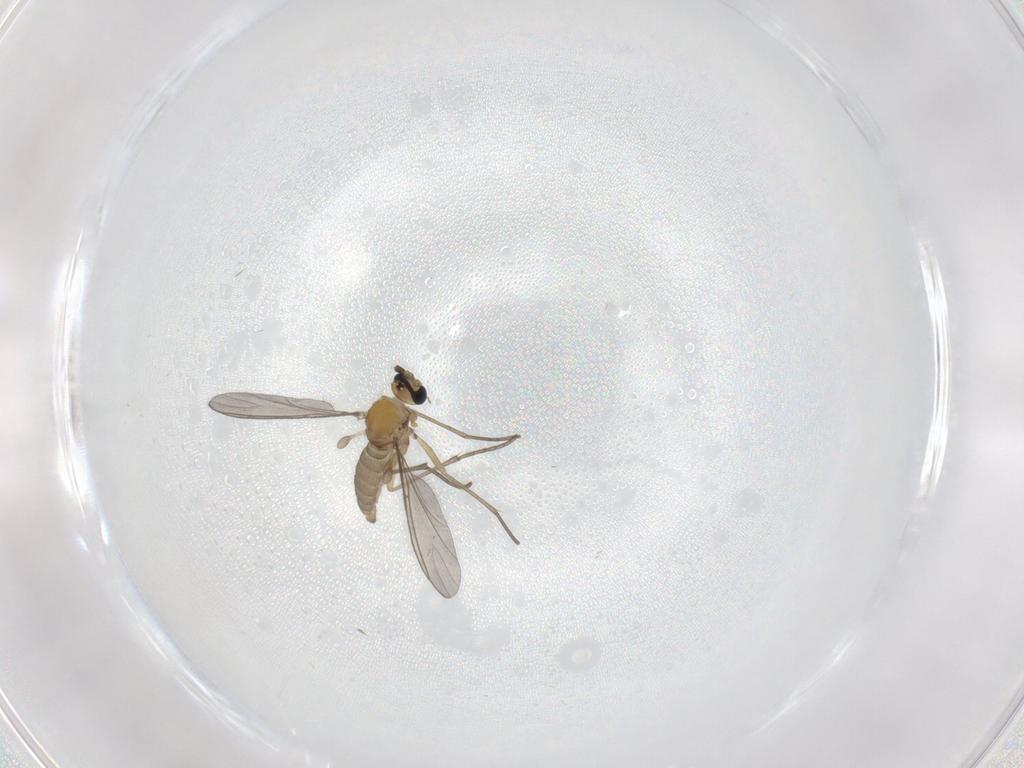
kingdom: Animalia
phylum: Arthropoda
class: Insecta
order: Diptera
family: Sciaridae
